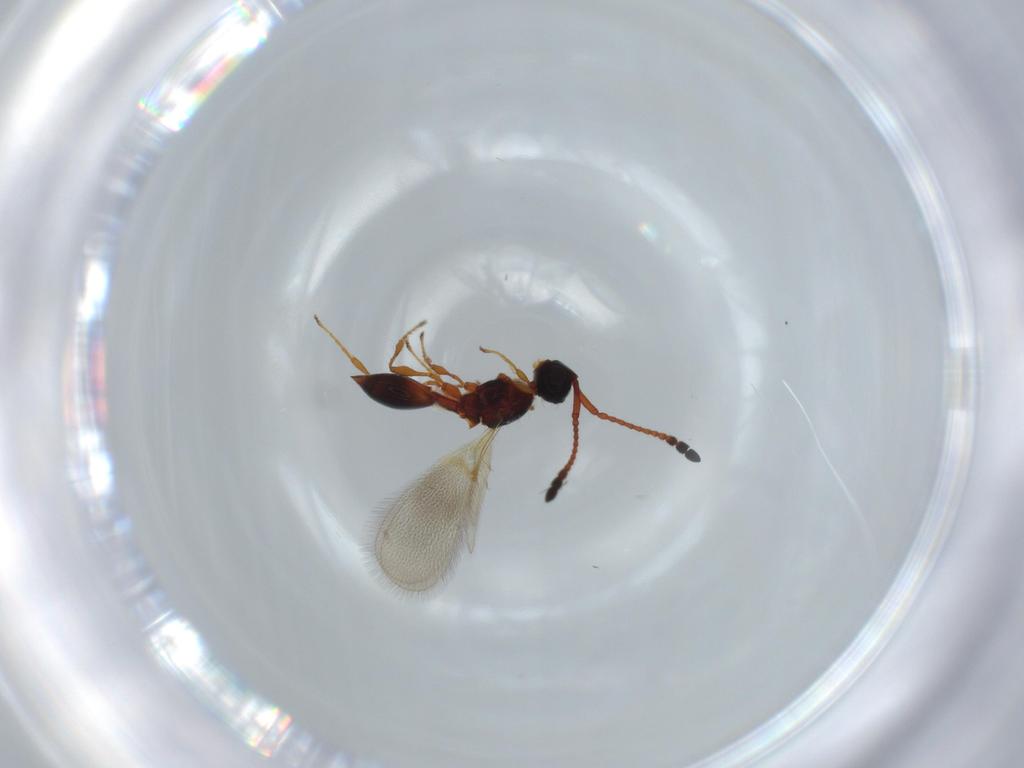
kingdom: Animalia
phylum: Arthropoda
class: Insecta
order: Hymenoptera
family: Diapriidae
